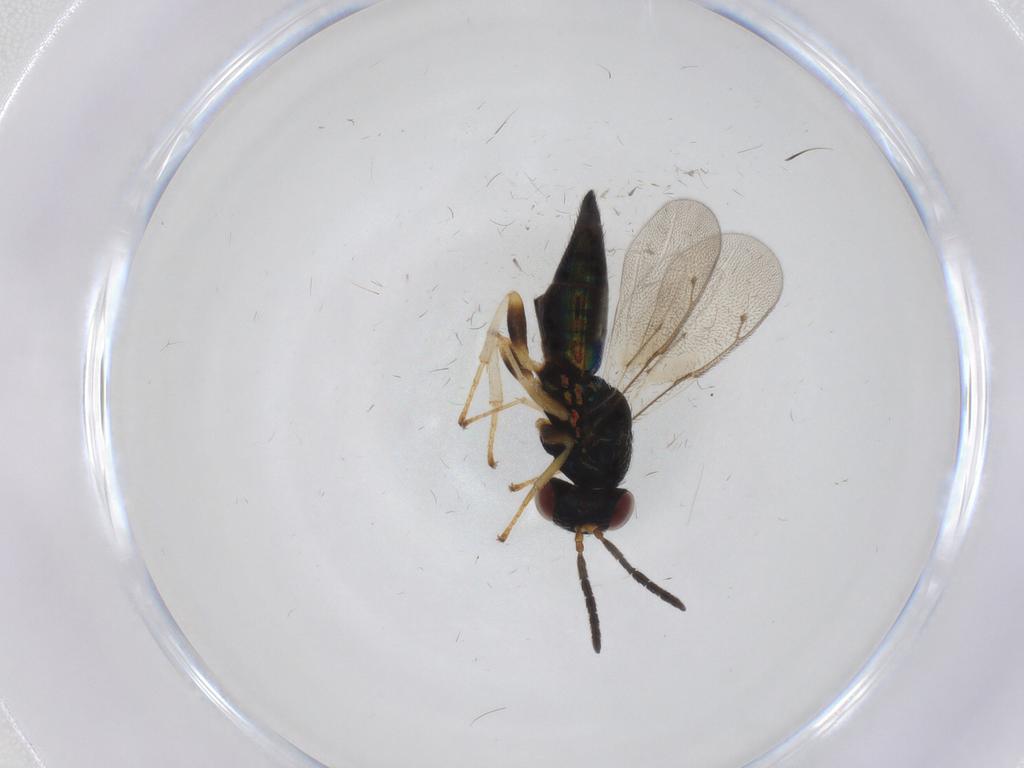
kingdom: Animalia
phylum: Arthropoda
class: Insecta
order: Hymenoptera
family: Pteromalidae
